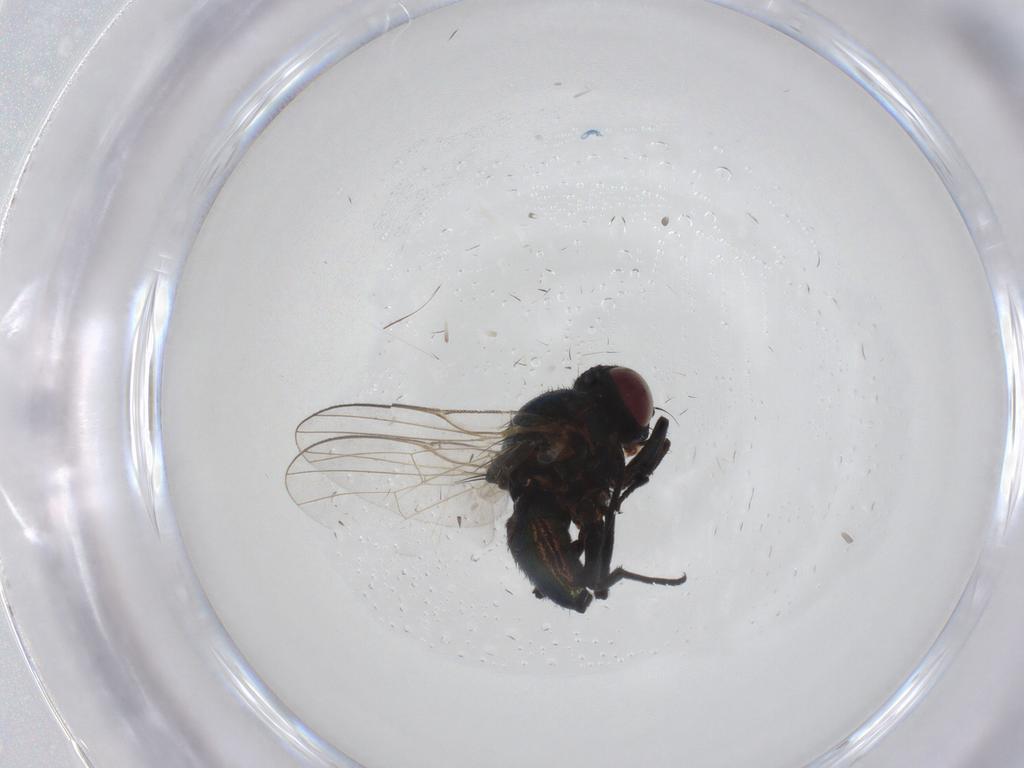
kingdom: Animalia
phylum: Arthropoda
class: Insecta
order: Diptera
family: Agromyzidae
